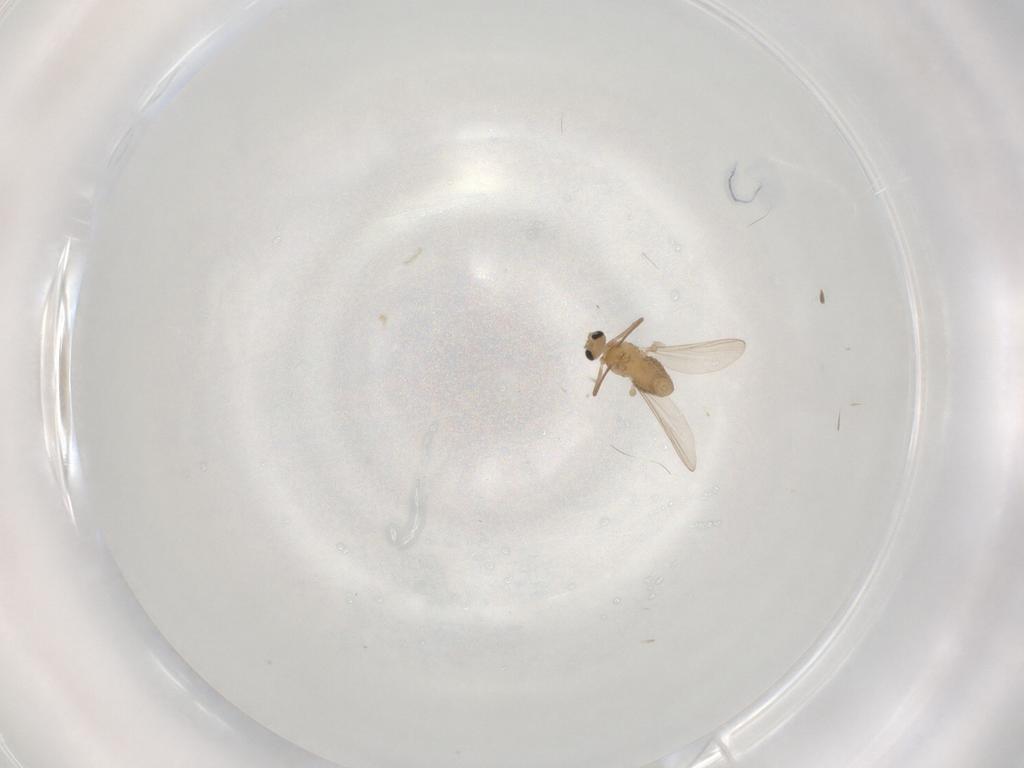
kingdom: Animalia
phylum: Arthropoda
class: Insecta
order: Diptera
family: Chironomidae
